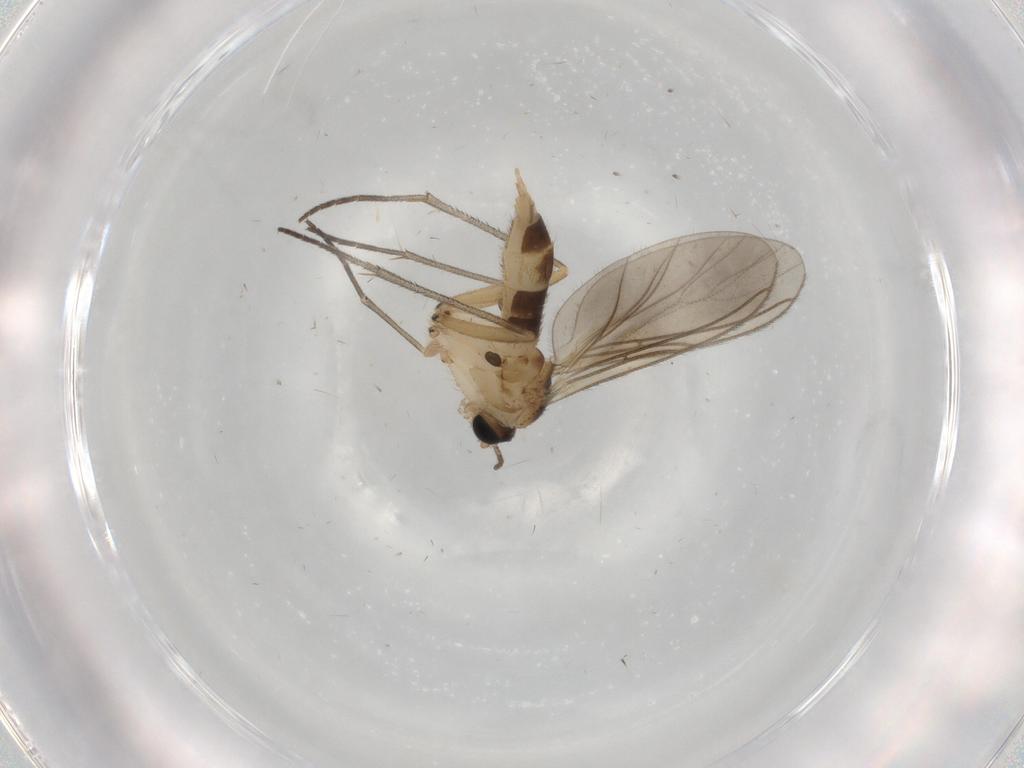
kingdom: Animalia
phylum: Arthropoda
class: Insecta
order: Diptera
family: Sciaridae
